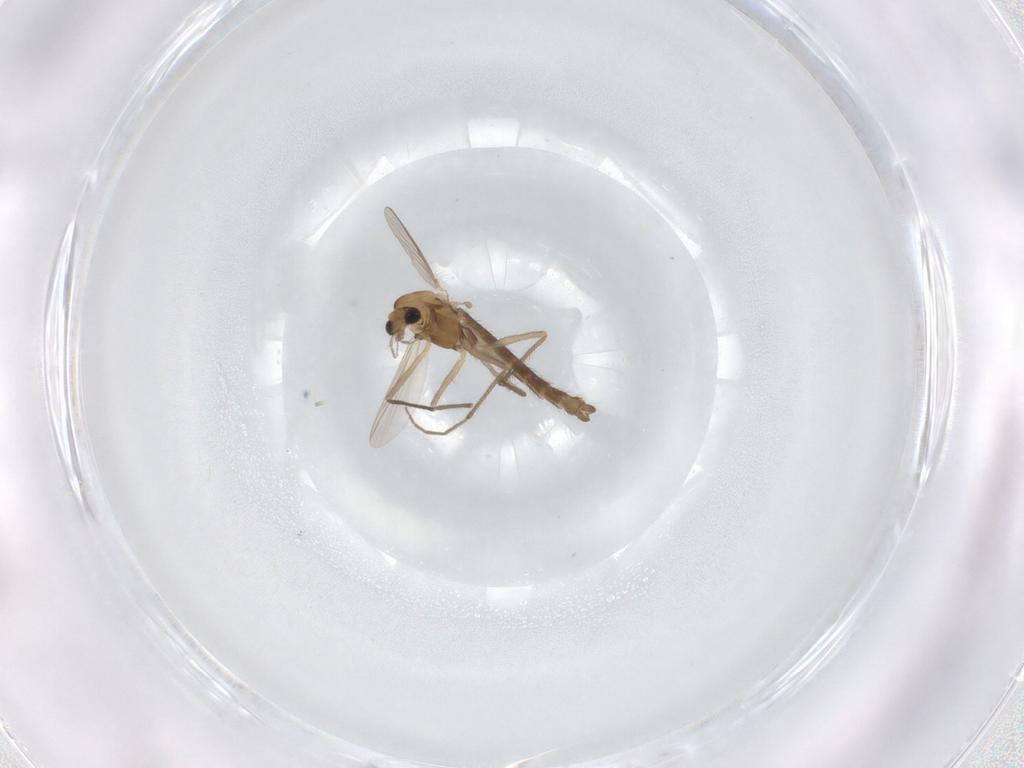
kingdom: Animalia
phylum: Arthropoda
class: Insecta
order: Diptera
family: Chironomidae
